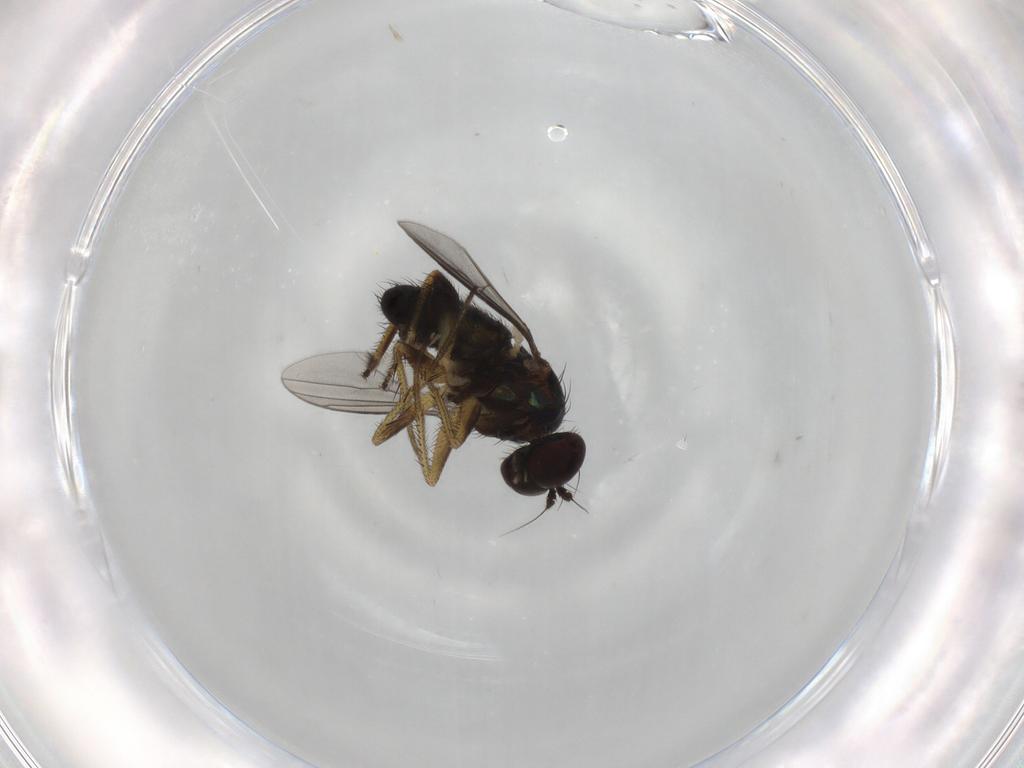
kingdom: Animalia
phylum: Arthropoda
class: Insecta
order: Diptera
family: Dolichopodidae
